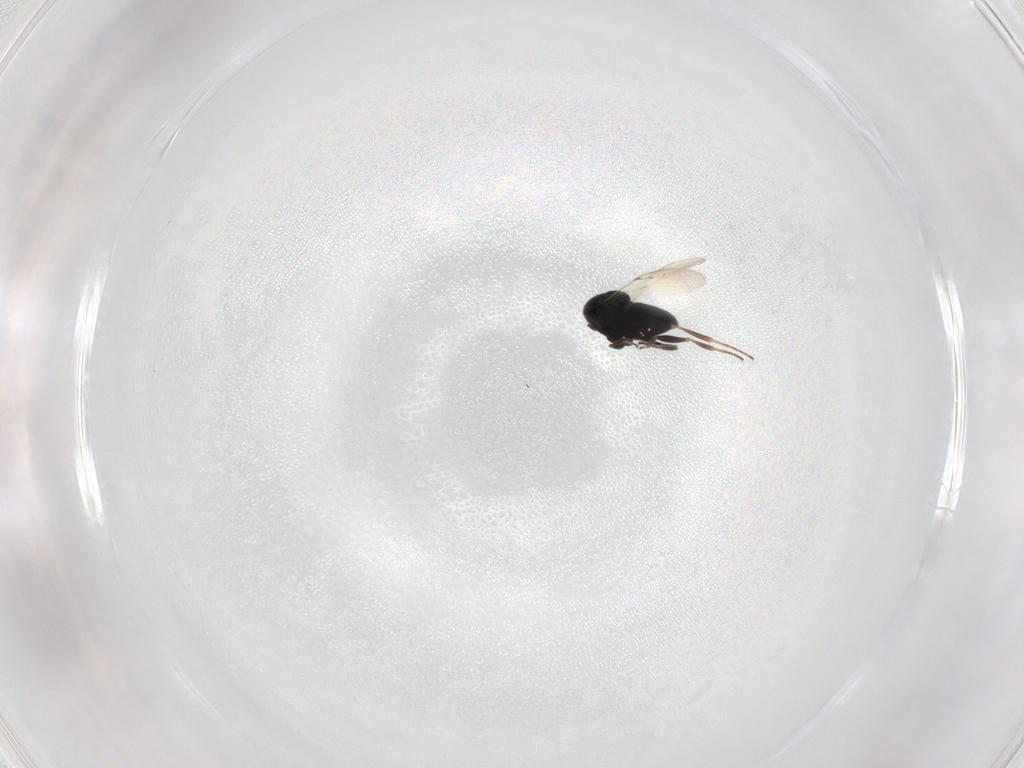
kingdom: Animalia
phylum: Arthropoda
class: Insecta
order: Hymenoptera
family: Scelionidae
